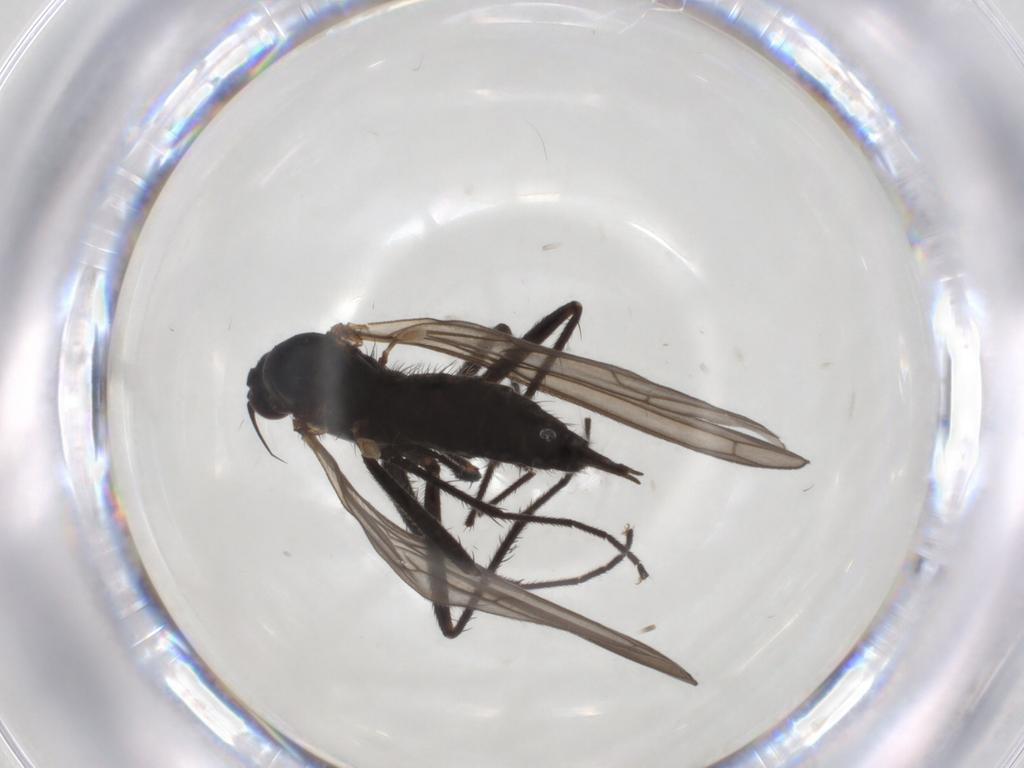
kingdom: Animalia
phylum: Arthropoda
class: Insecta
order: Diptera
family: Empididae
